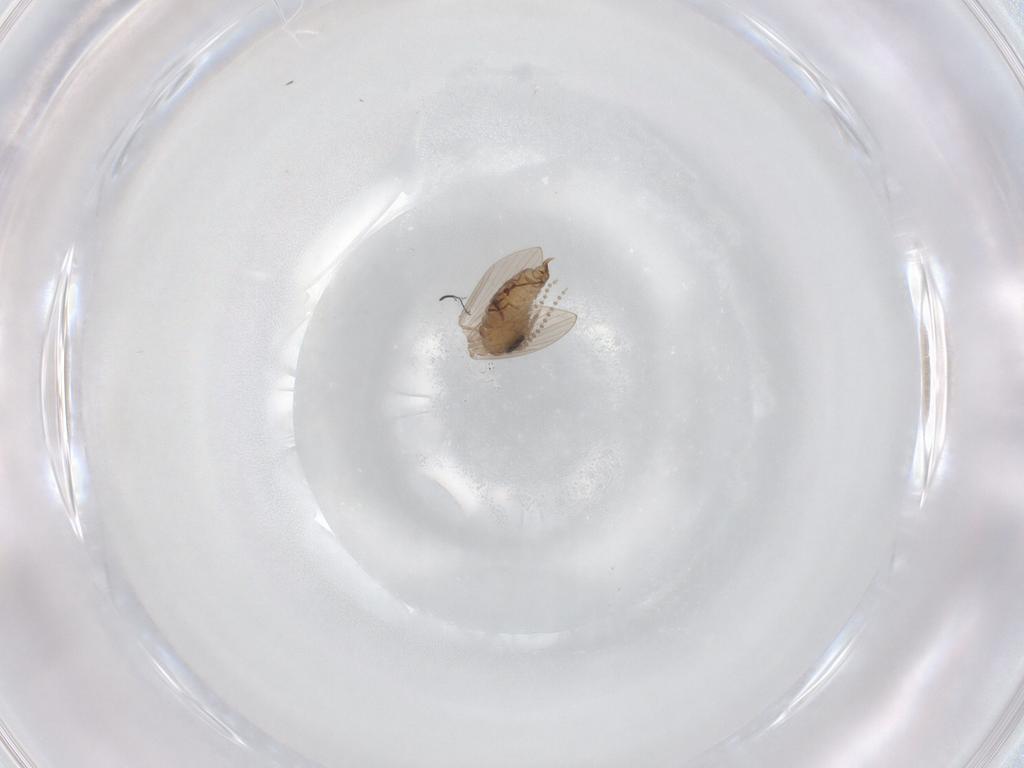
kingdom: Animalia
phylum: Arthropoda
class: Insecta
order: Diptera
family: Psychodidae
